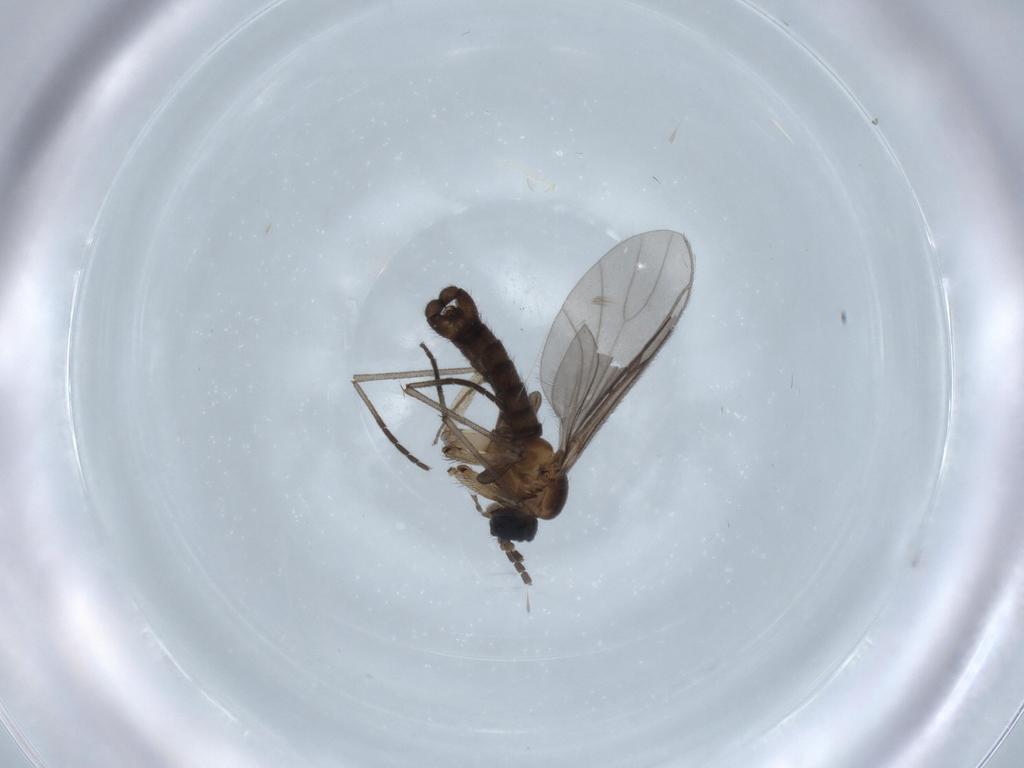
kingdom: Animalia
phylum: Arthropoda
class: Insecta
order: Diptera
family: Sciaridae
